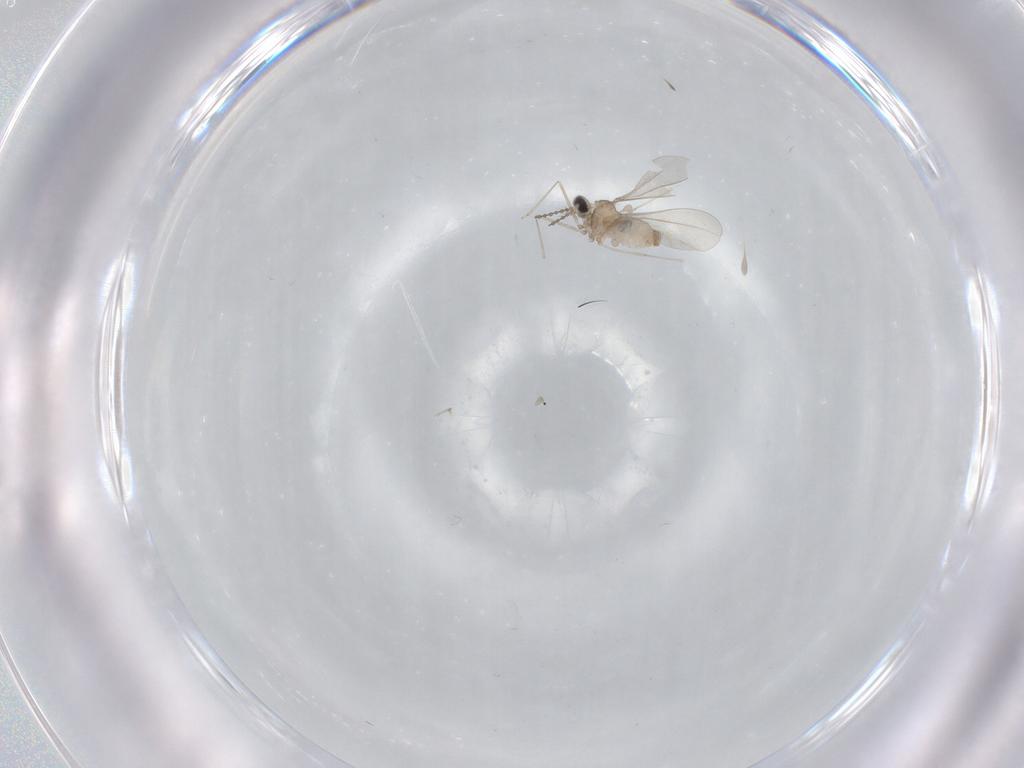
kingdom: Animalia
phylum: Arthropoda
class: Insecta
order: Diptera
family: Cecidomyiidae
